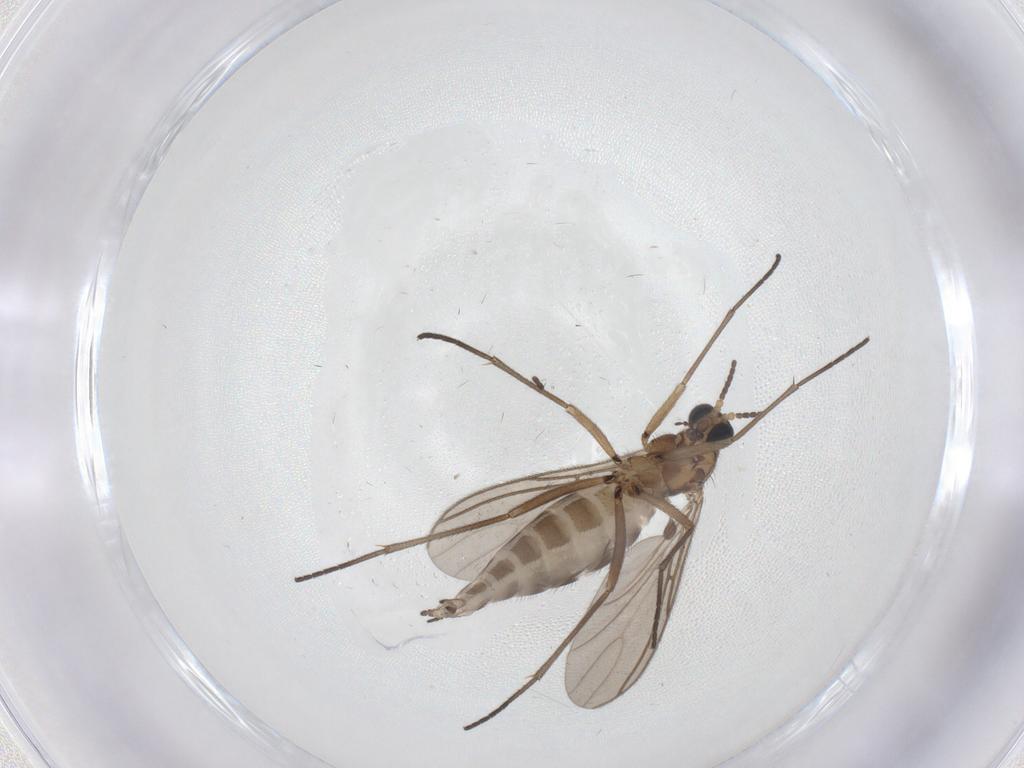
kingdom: Animalia
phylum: Arthropoda
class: Insecta
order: Diptera
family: Sciaridae
